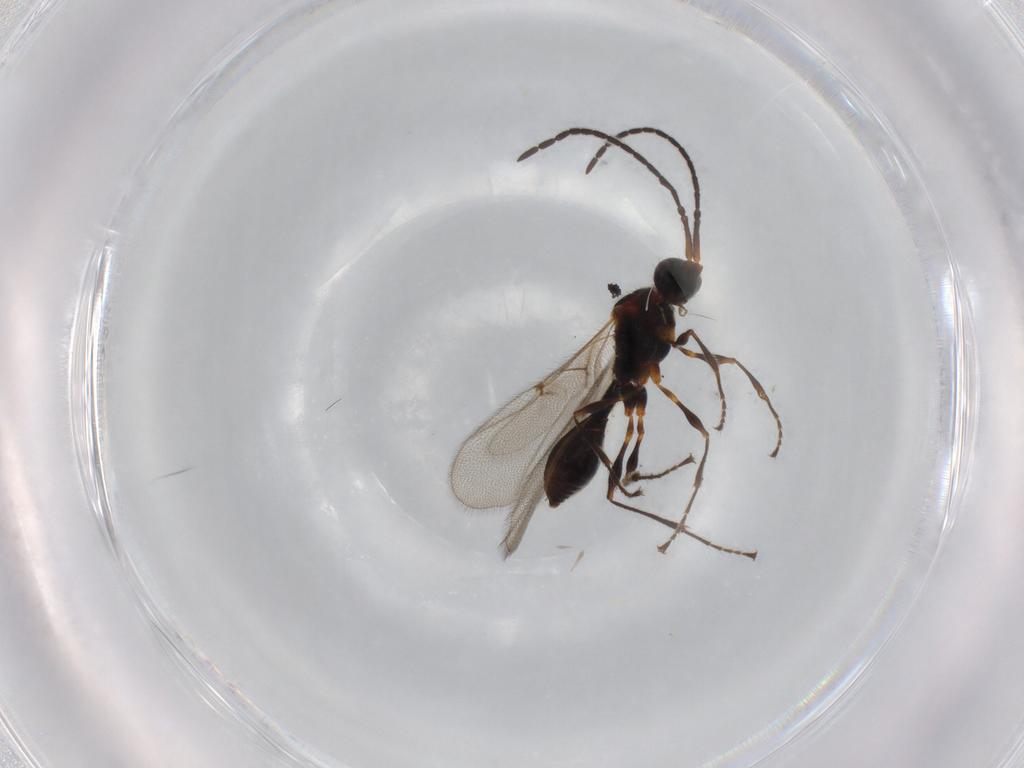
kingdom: Animalia
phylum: Arthropoda
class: Insecta
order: Hymenoptera
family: Diapriidae
